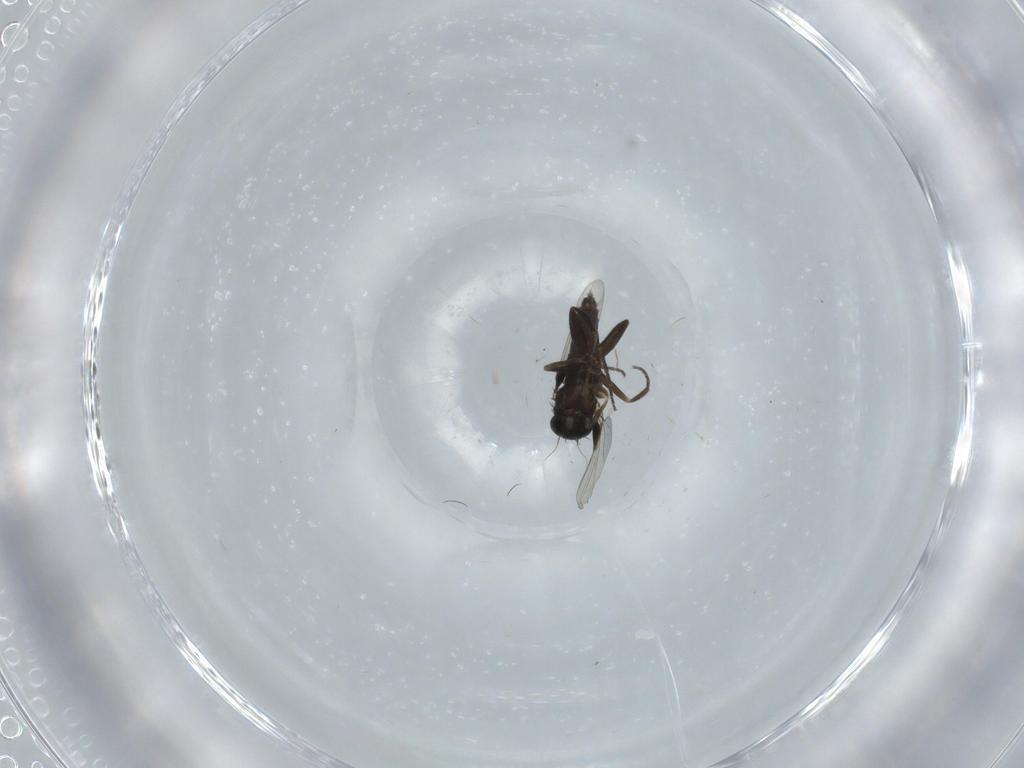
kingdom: Animalia
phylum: Arthropoda
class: Insecta
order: Diptera
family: Phoridae
